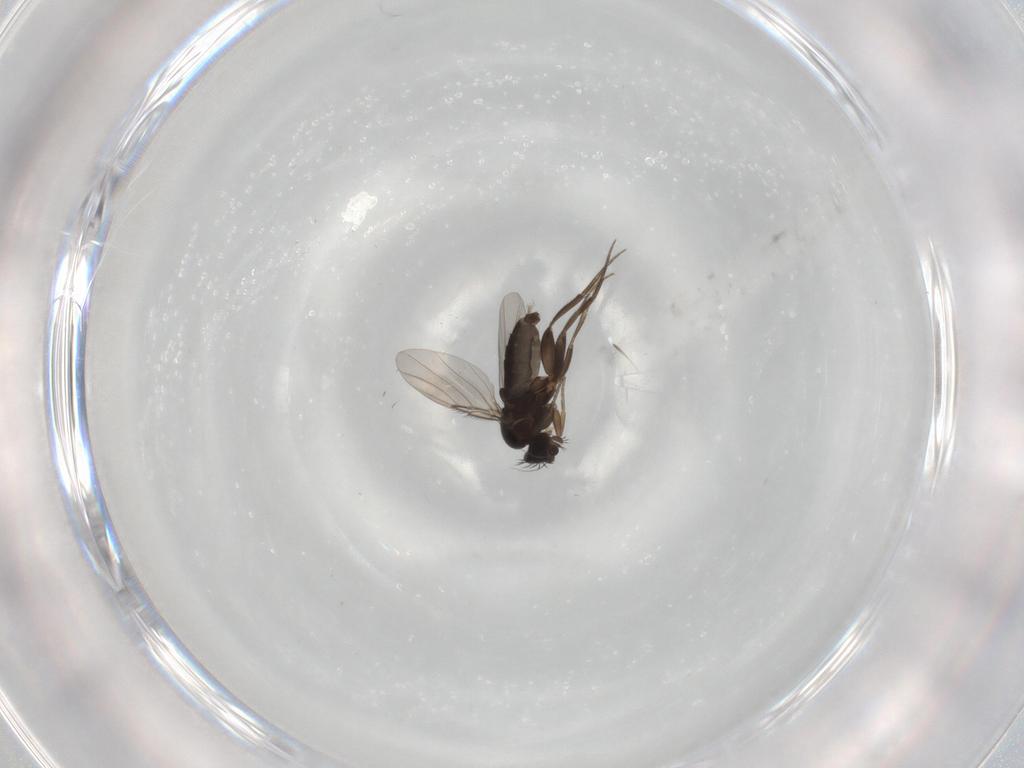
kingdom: Animalia
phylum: Arthropoda
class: Insecta
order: Diptera
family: Phoridae
